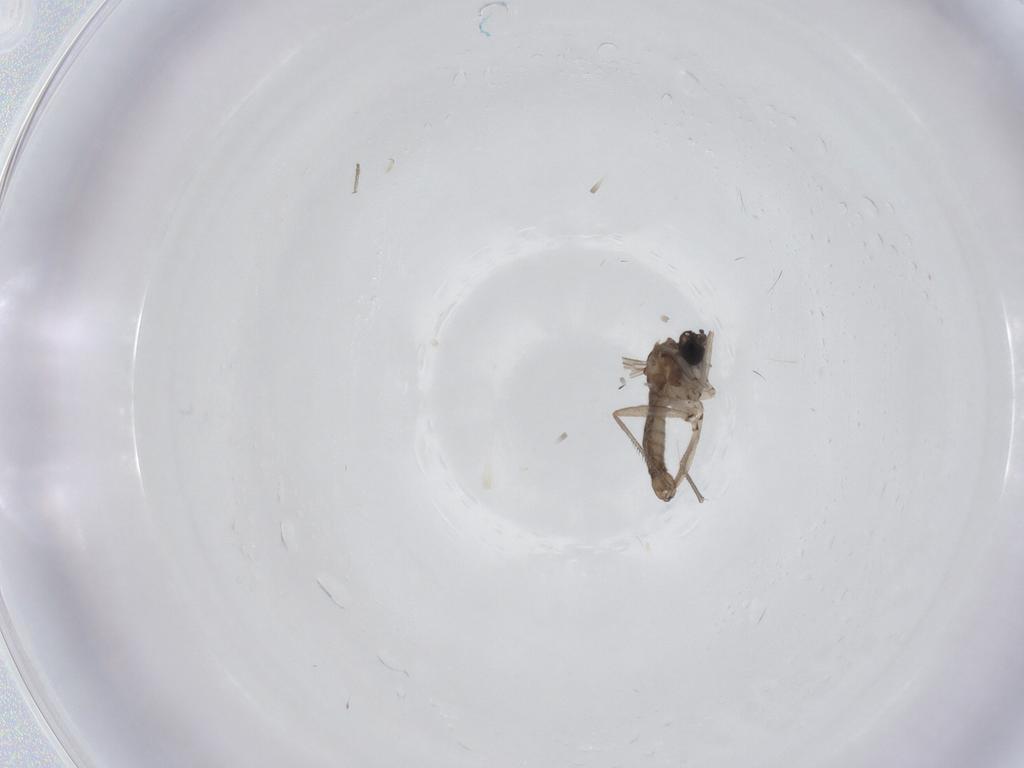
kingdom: Animalia
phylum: Arthropoda
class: Insecta
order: Diptera
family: Sciaridae
